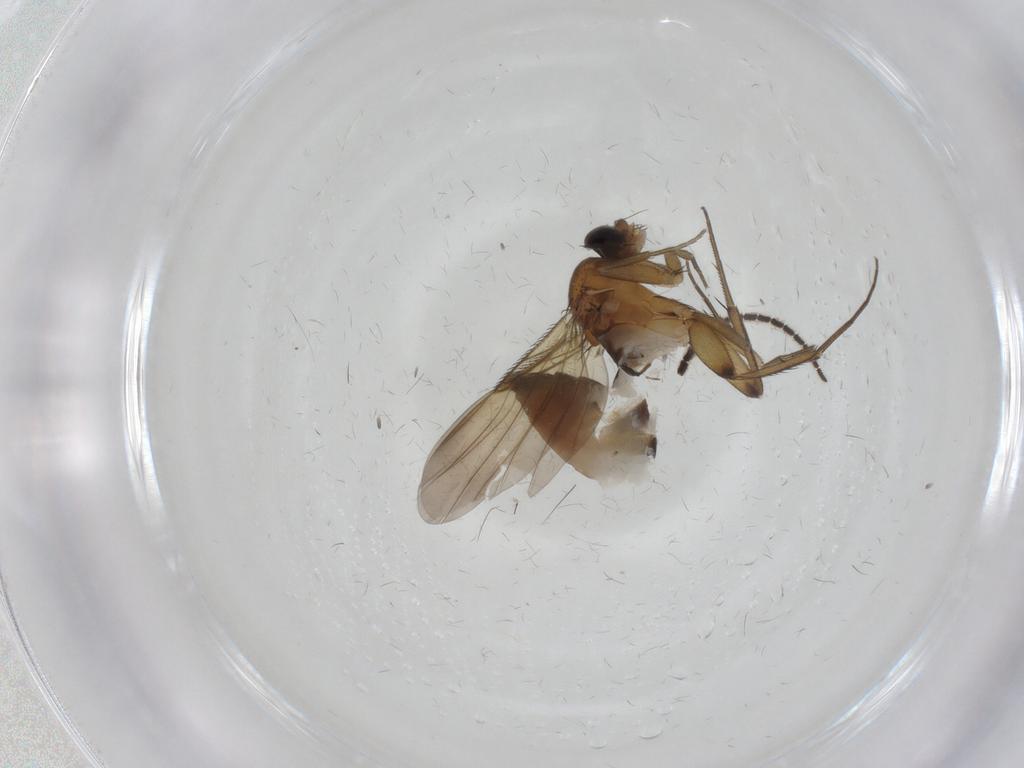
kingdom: Animalia
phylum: Arthropoda
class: Insecta
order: Diptera
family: Phoridae
